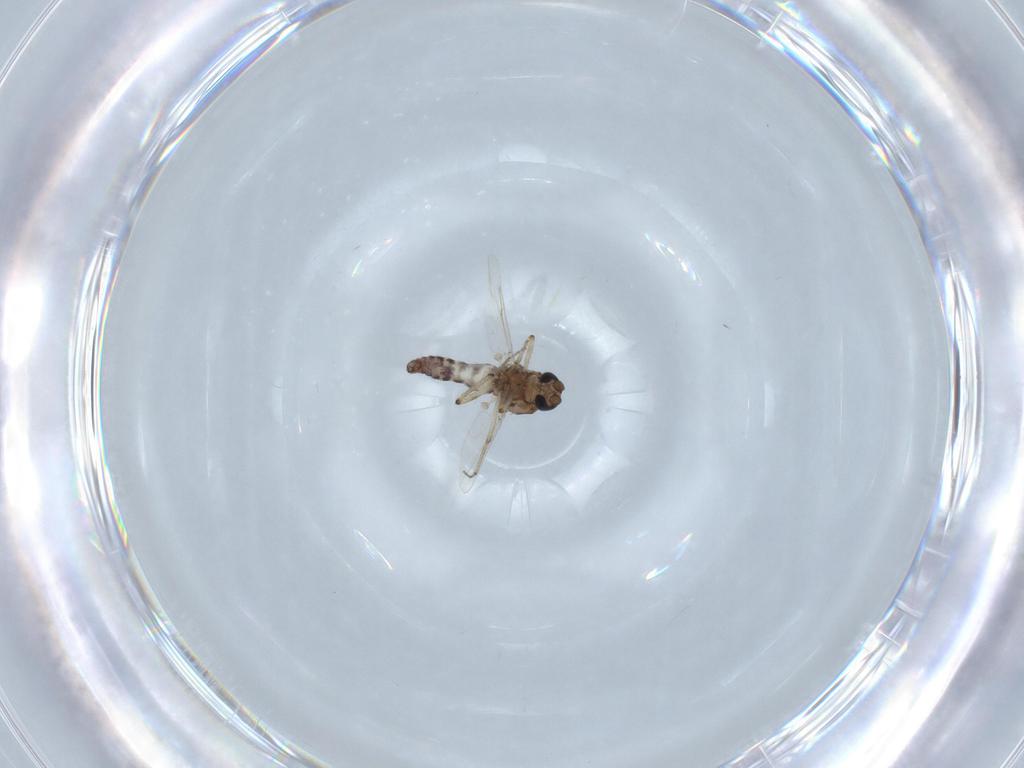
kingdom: Animalia
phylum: Arthropoda
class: Insecta
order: Diptera
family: Ceratopogonidae
